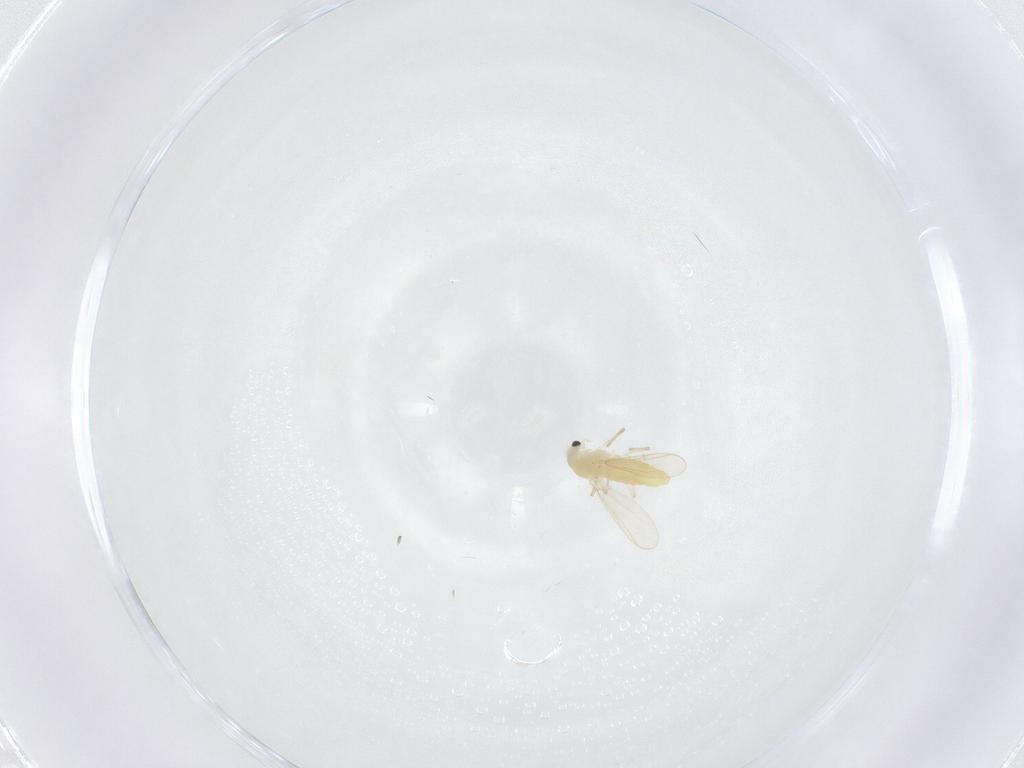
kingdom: Animalia
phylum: Arthropoda
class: Insecta
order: Diptera
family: Chironomidae
